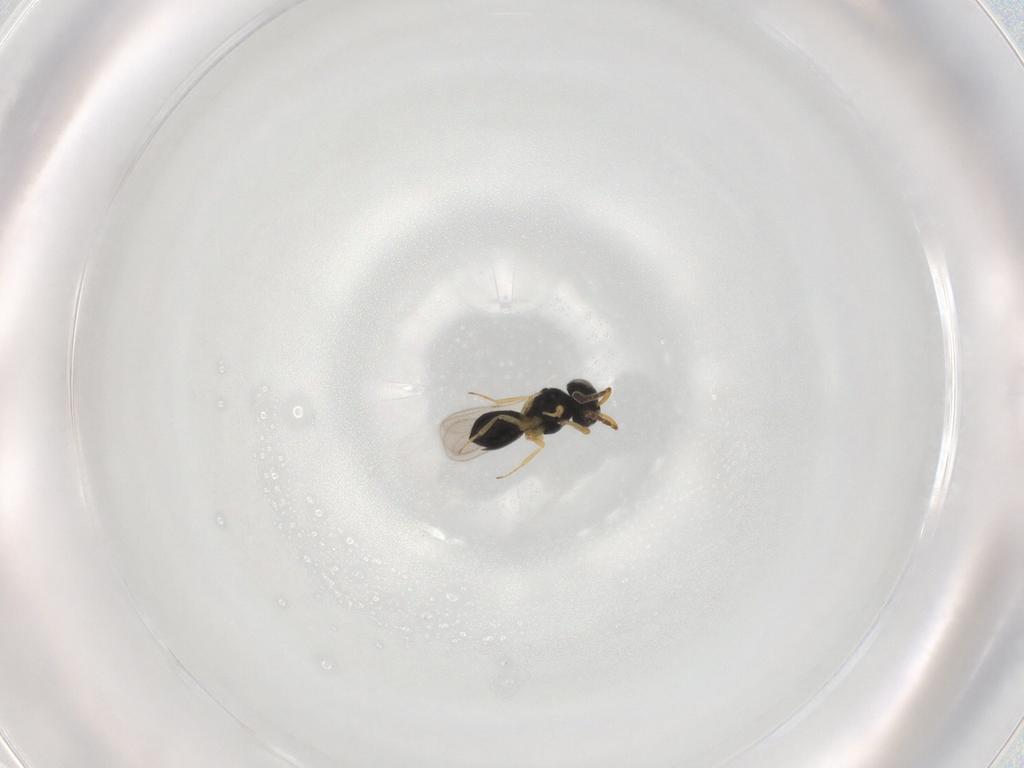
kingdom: Animalia
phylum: Arthropoda
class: Insecta
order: Hymenoptera
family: Scelionidae
